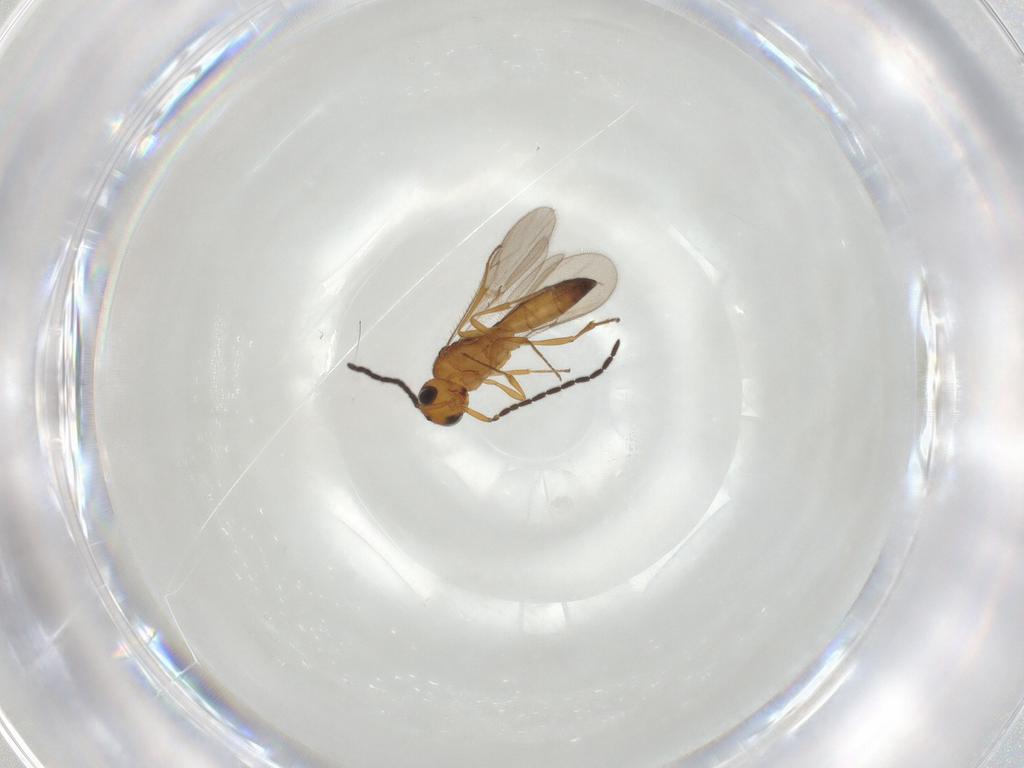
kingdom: Animalia
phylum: Arthropoda
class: Insecta
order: Hymenoptera
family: Scelionidae
